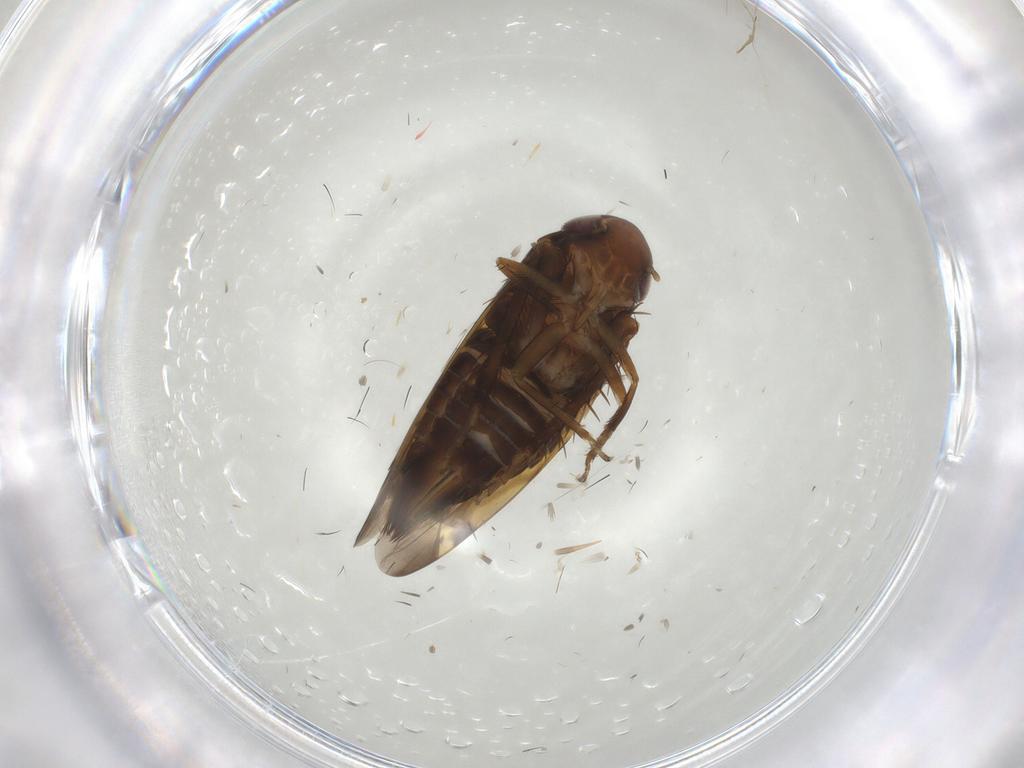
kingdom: Animalia
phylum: Arthropoda
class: Insecta
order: Hemiptera
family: Cicadellidae
